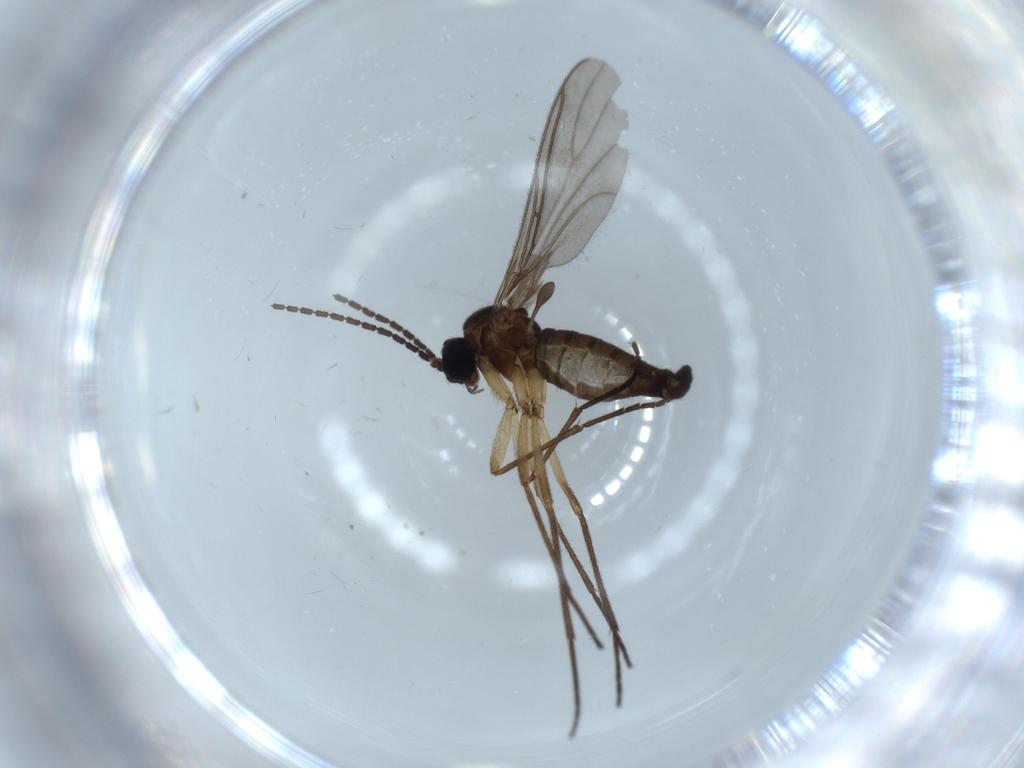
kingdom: Animalia
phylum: Arthropoda
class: Insecta
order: Diptera
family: Sciaridae
